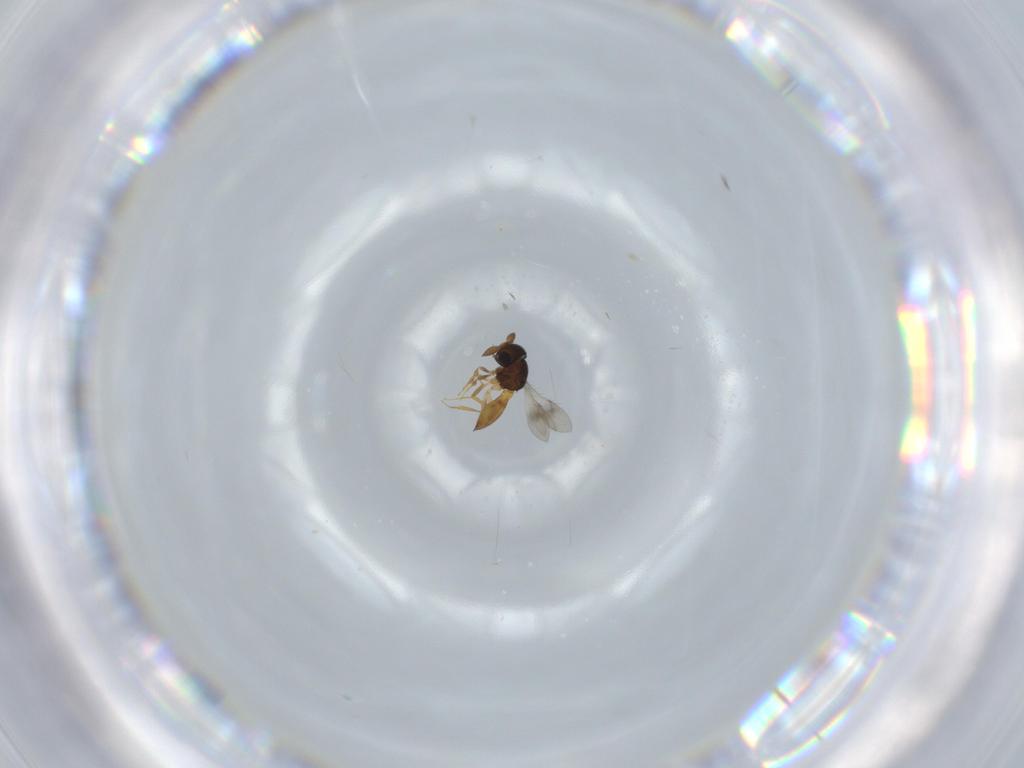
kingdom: Animalia
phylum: Arthropoda
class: Insecta
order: Hymenoptera
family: Scelionidae
